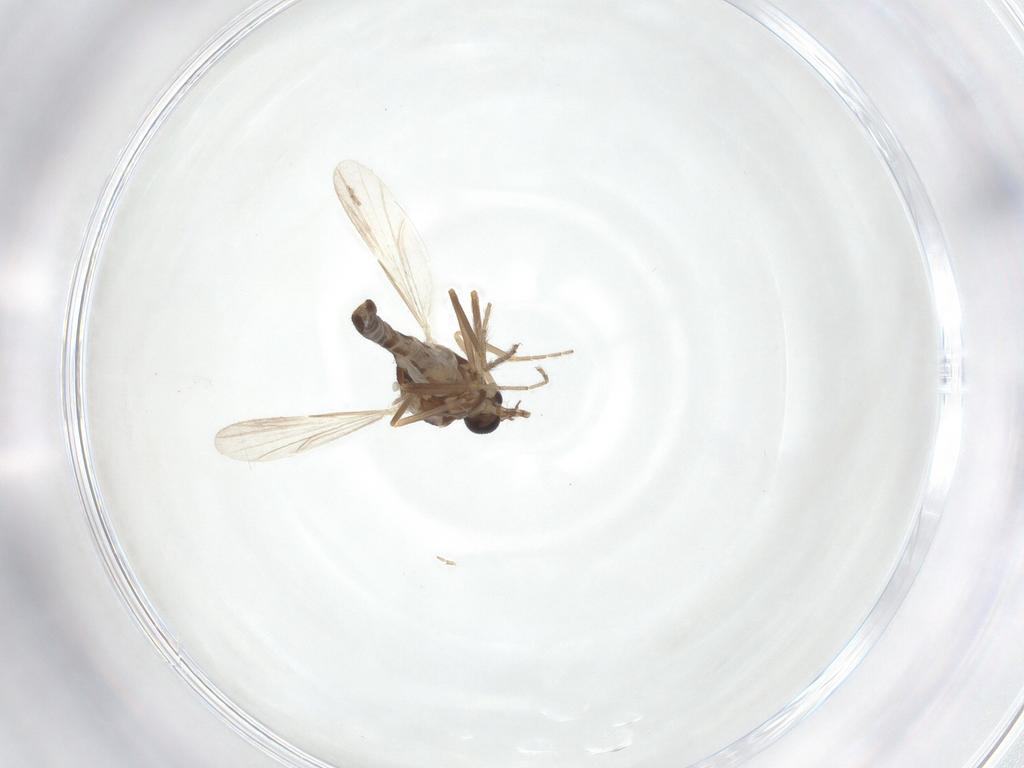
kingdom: Animalia
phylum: Arthropoda
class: Insecta
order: Diptera
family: Ceratopogonidae
